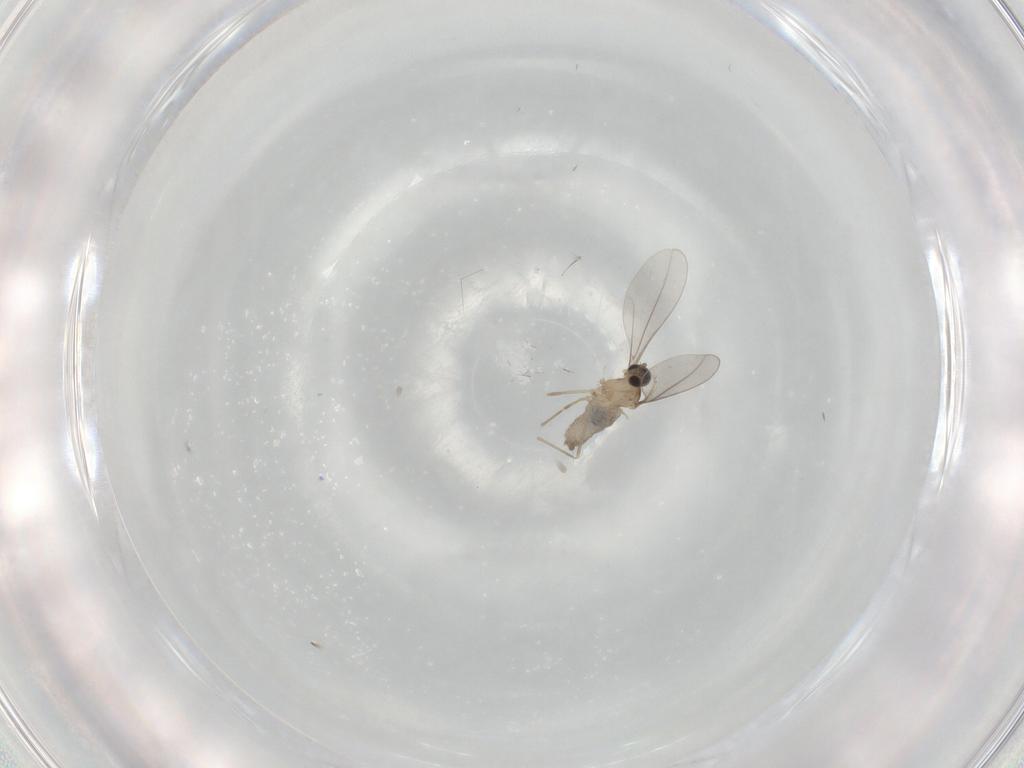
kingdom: Animalia
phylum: Arthropoda
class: Insecta
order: Diptera
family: Cecidomyiidae
